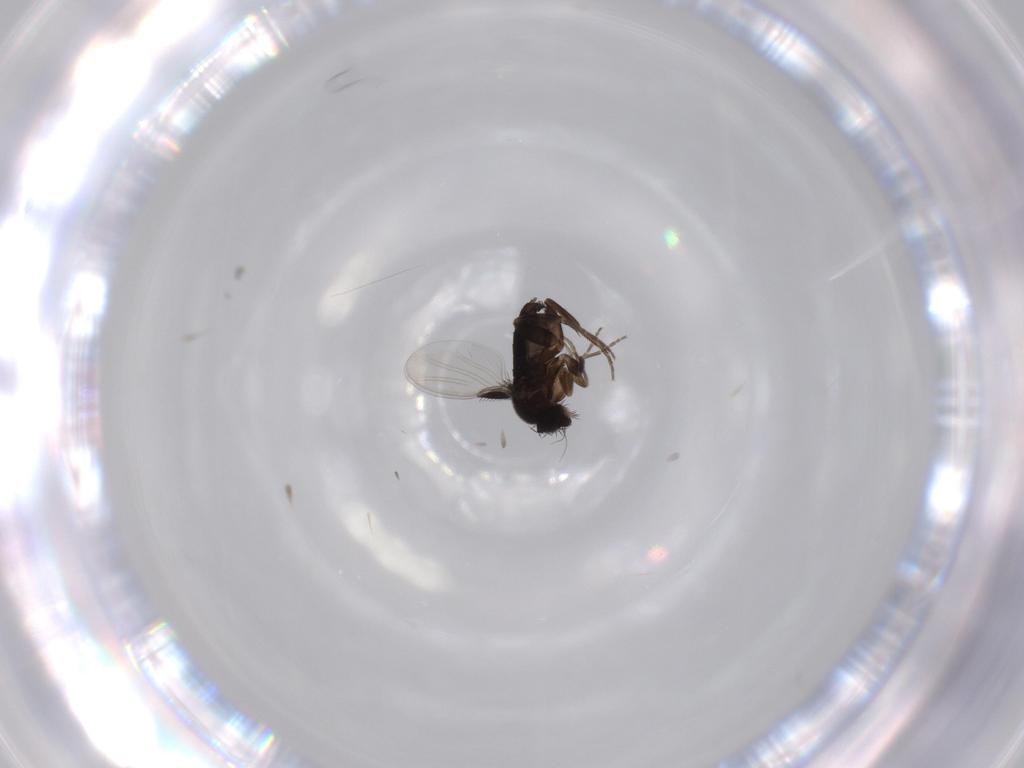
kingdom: Animalia
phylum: Arthropoda
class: Insecta
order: Diptera
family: Phoridae
